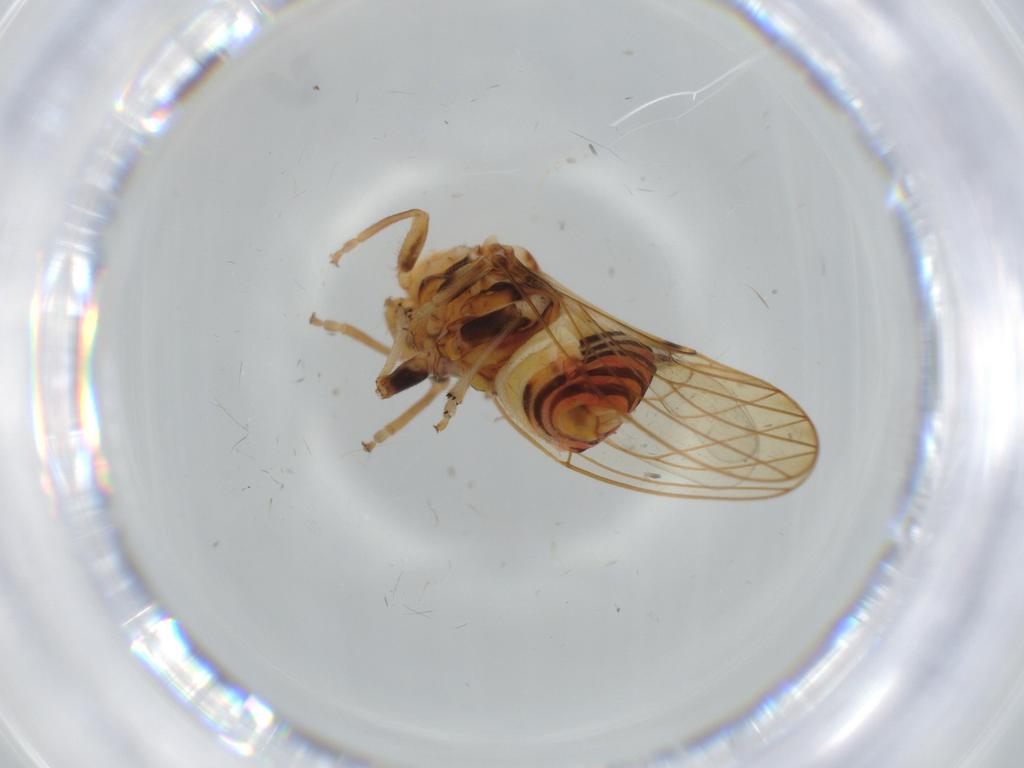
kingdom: Animalia
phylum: Arthropoda
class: Insecta
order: Hemiptera
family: Psyllidae
